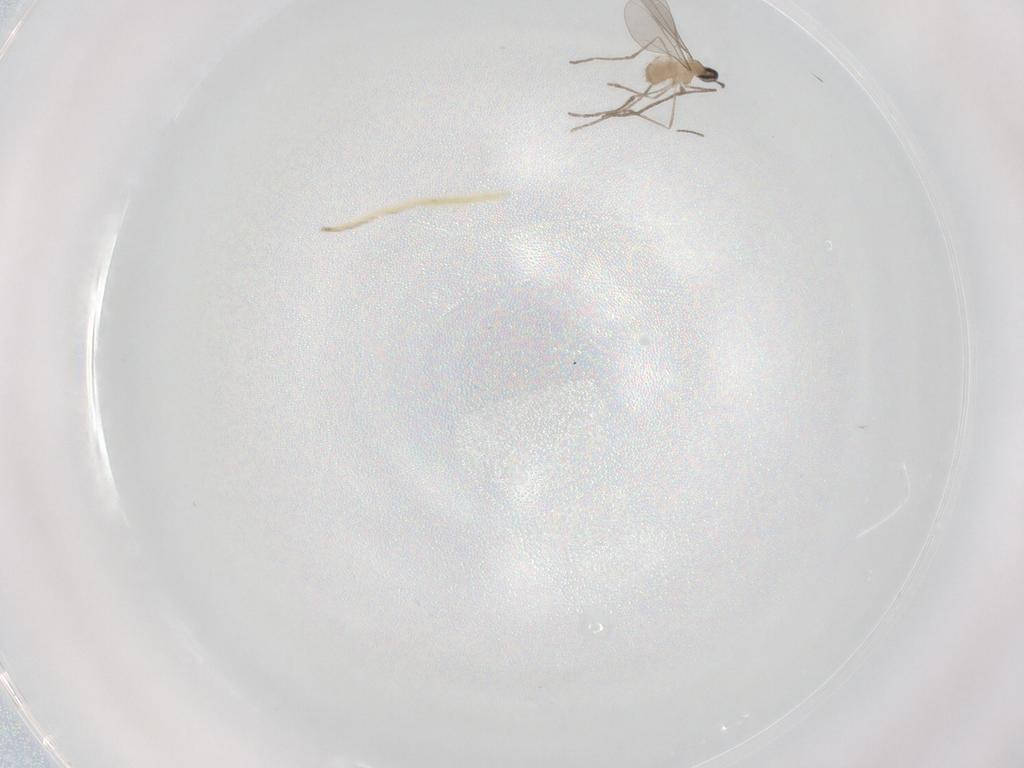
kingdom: Animalia
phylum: Arthropoda
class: Insecta
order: Diptera
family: Chironomidae
